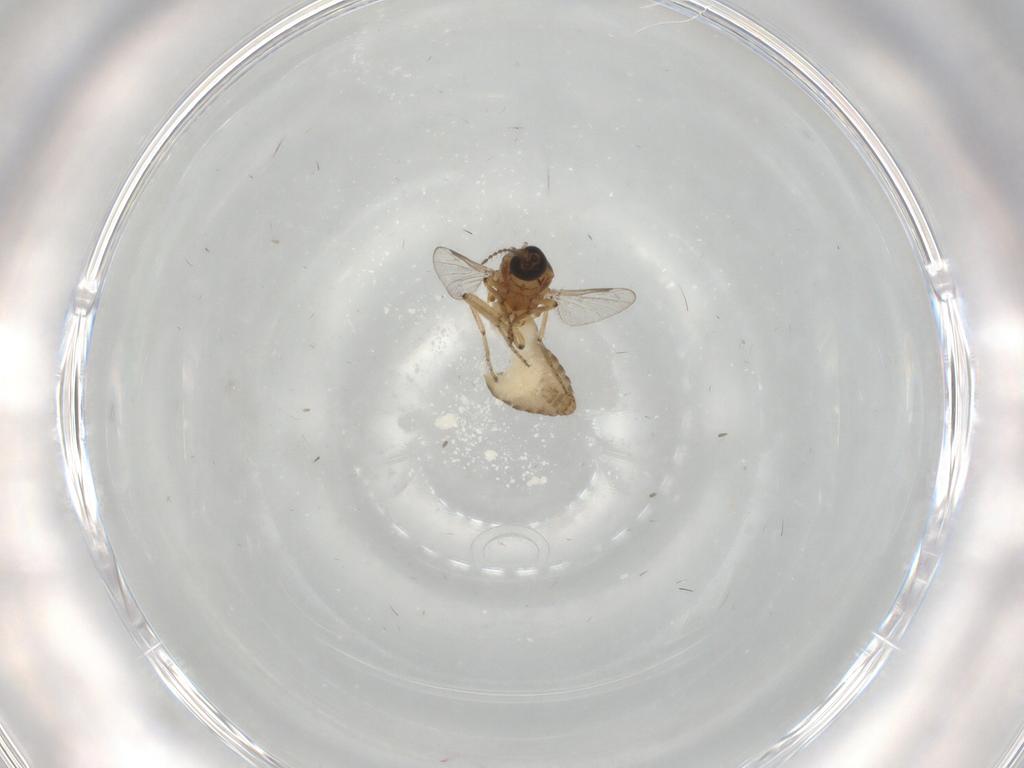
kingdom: Animalia
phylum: Arthropoda
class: Insecta
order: Diptera
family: Ceratopogonidae
